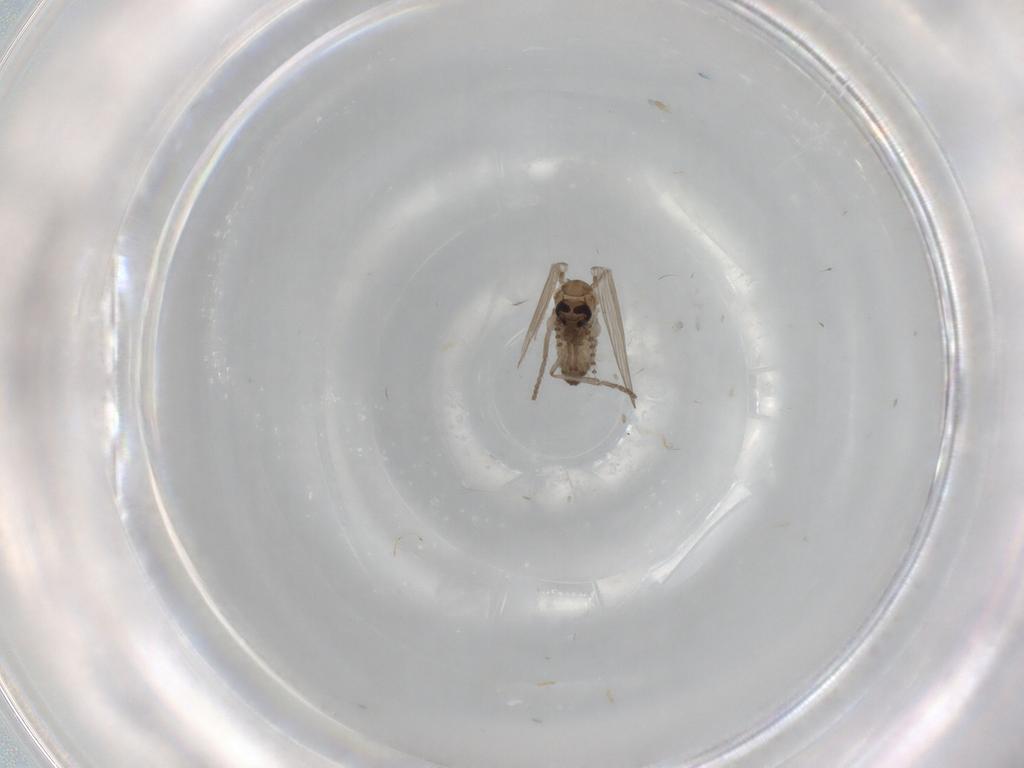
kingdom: Animalia
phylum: Arthropoda
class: Insecta
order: Diptera
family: Psychodidae
